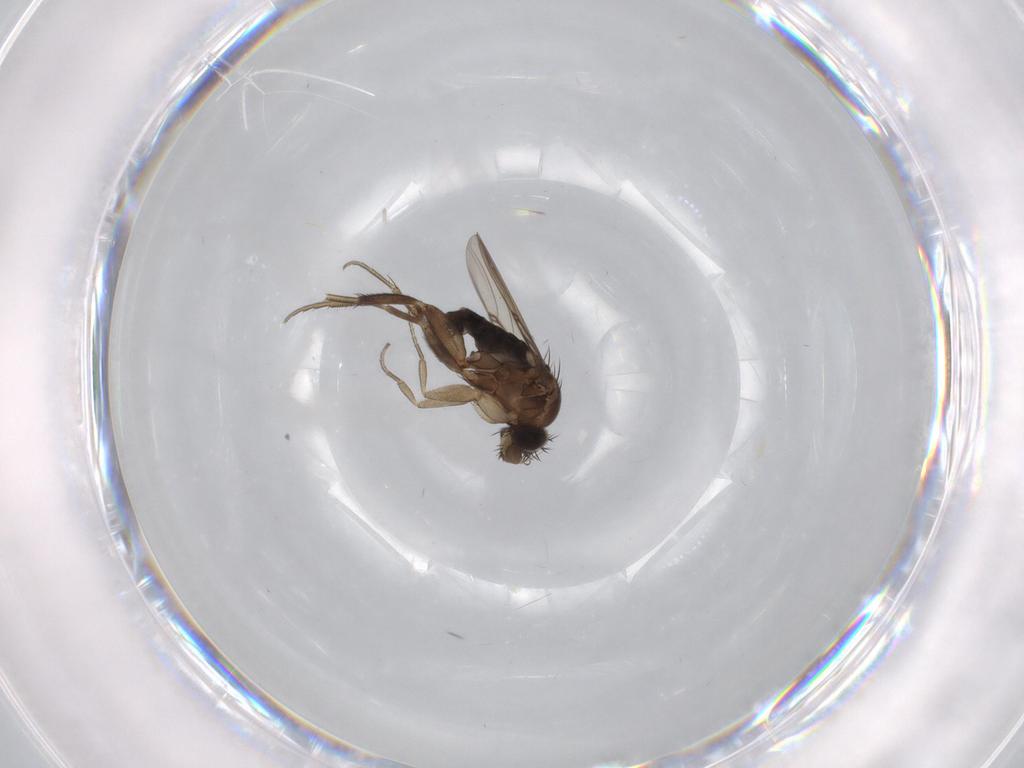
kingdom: Animalia
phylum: Arthropoda
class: Insecta
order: Diptera
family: Phoridae
